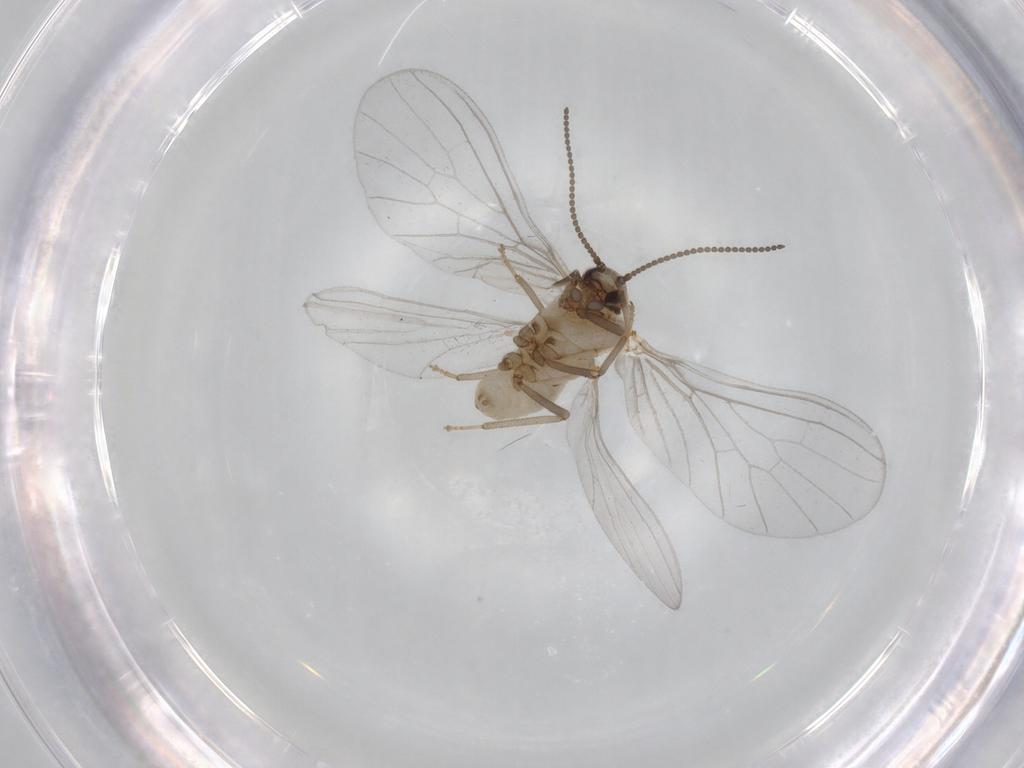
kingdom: Animalia
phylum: Arthropoda
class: Insecta
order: Neuroptera
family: Coniopterygidae
